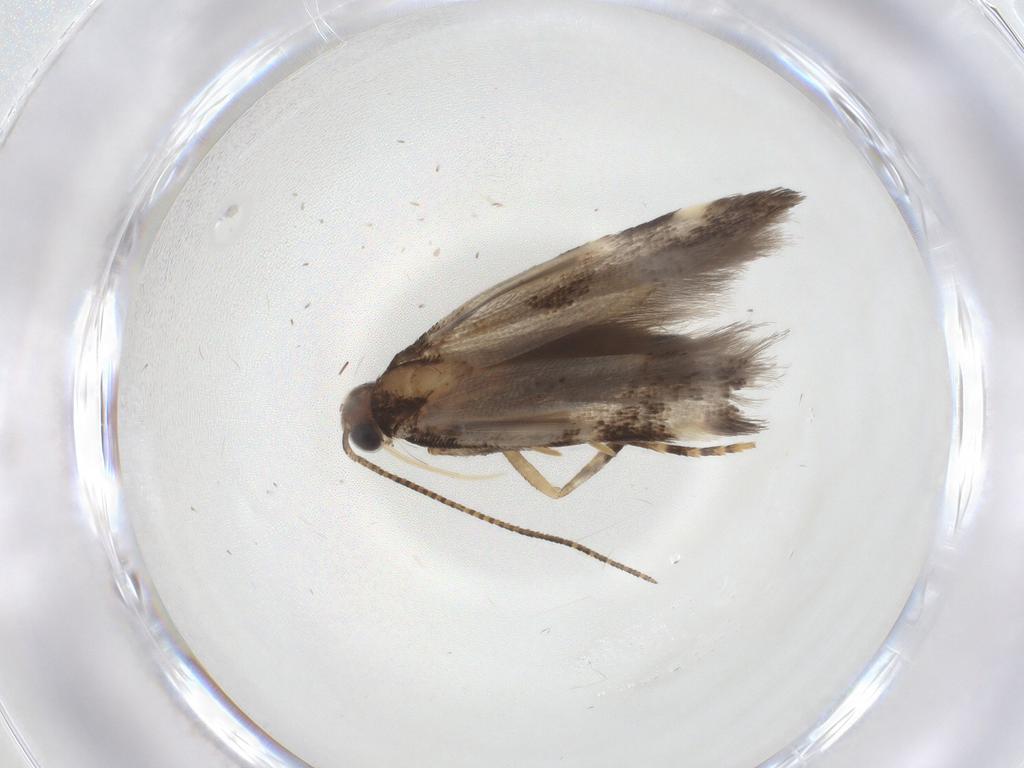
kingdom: Animalia
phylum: Arthropoda
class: Insecta
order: Lepidoptera
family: Gelechiidae
